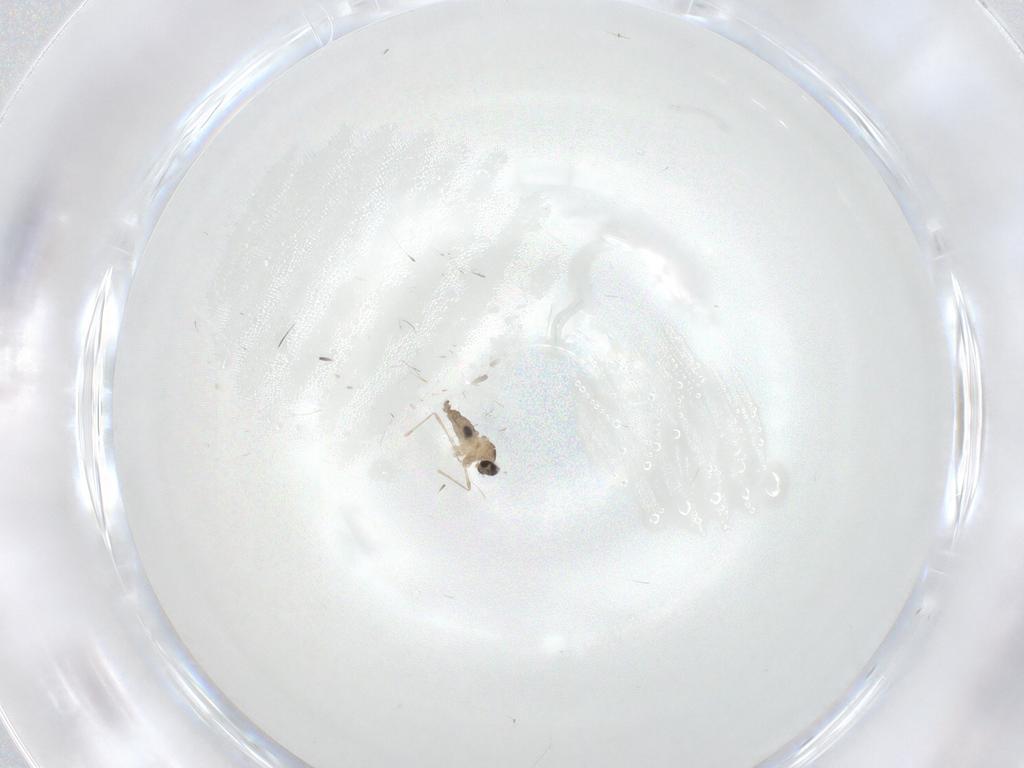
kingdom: Animalia
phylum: Arthropoda
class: Insecta
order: Diptera
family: Cecidomyiidae
